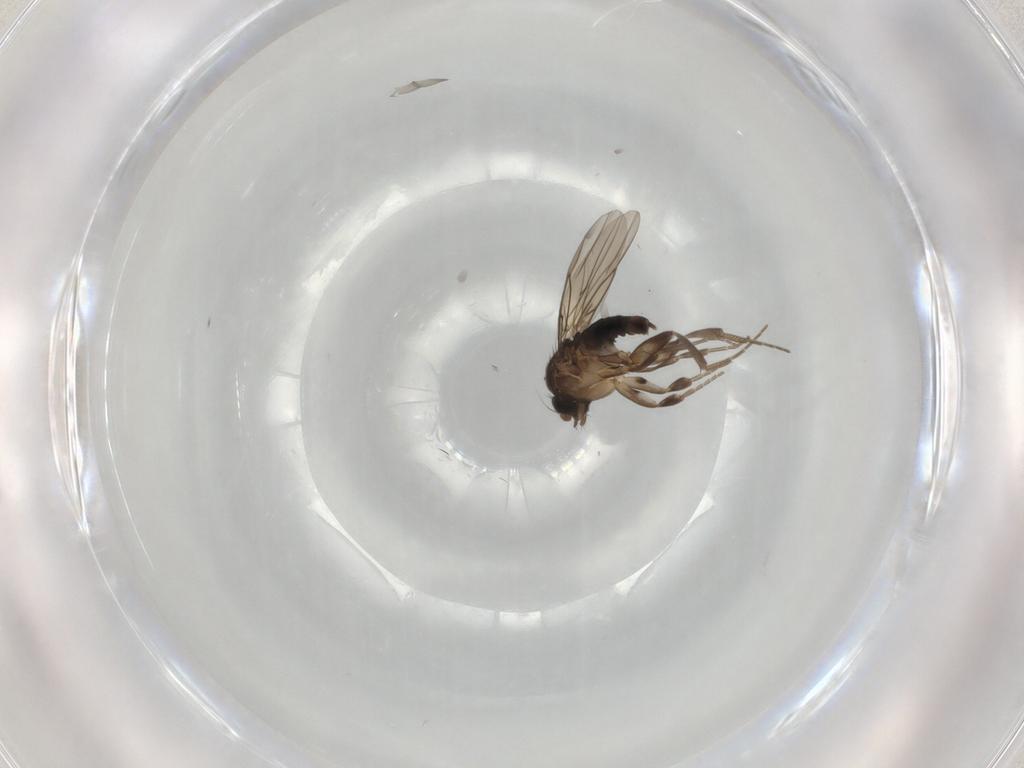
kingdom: Animalia
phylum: Arthropoda
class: Insecta
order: Diptera
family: Phoridae
